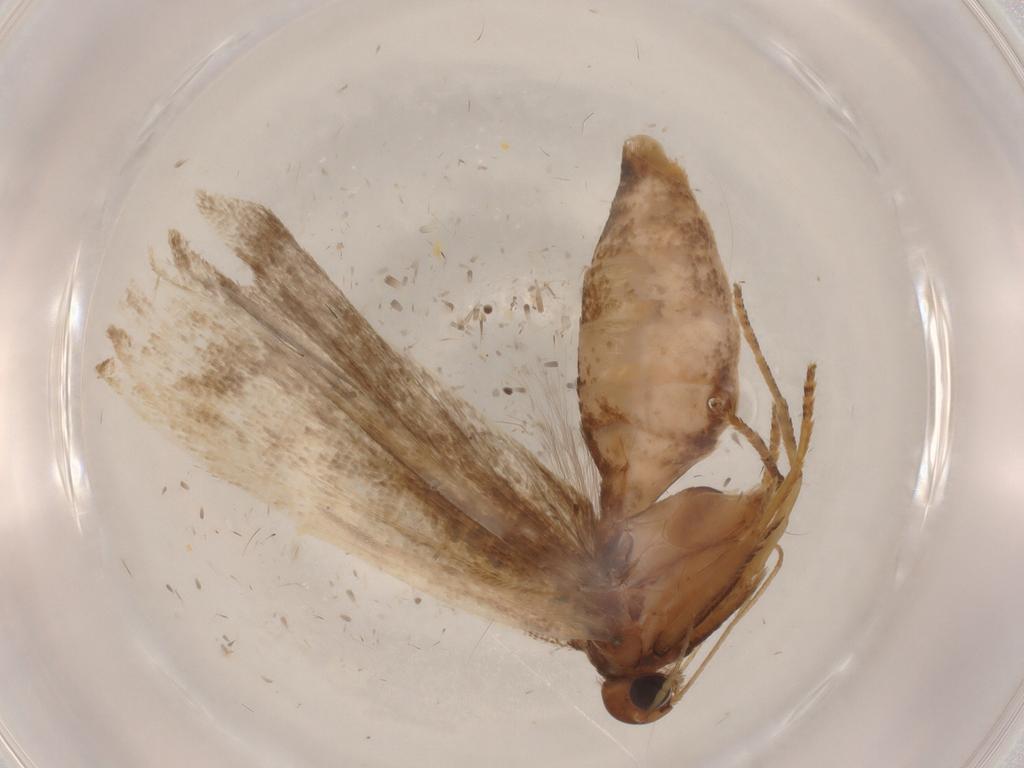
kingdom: Animalia
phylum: Arthropoda
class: Insecta
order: Lepidoptera
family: Gelechiidae
